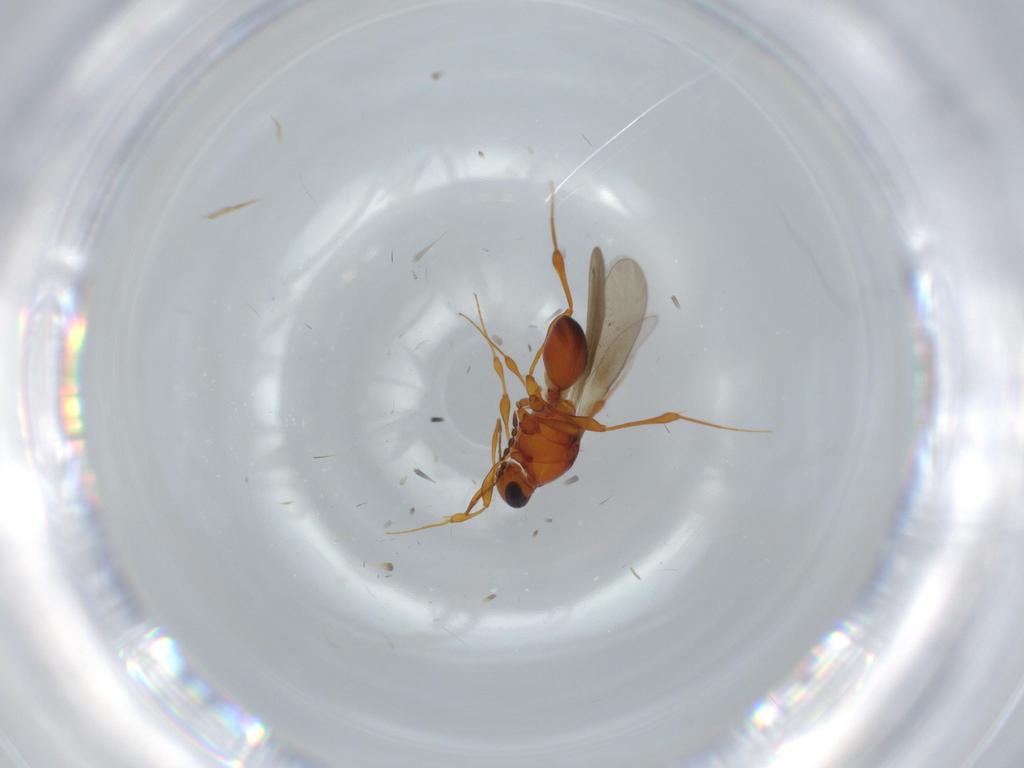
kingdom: Animalia
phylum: Arthropoda
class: Insecta
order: Hymenoptera
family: Platygastridae
